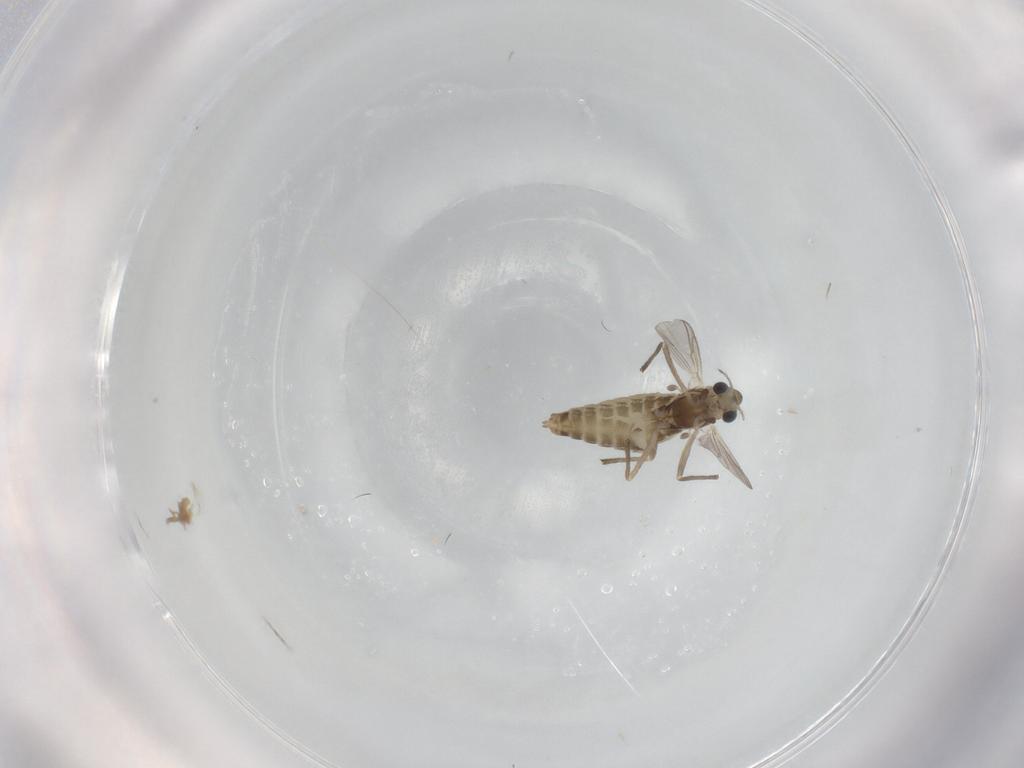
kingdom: Animalia
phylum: Arthropoda
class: Insecta
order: Diptera
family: Chironomidae
